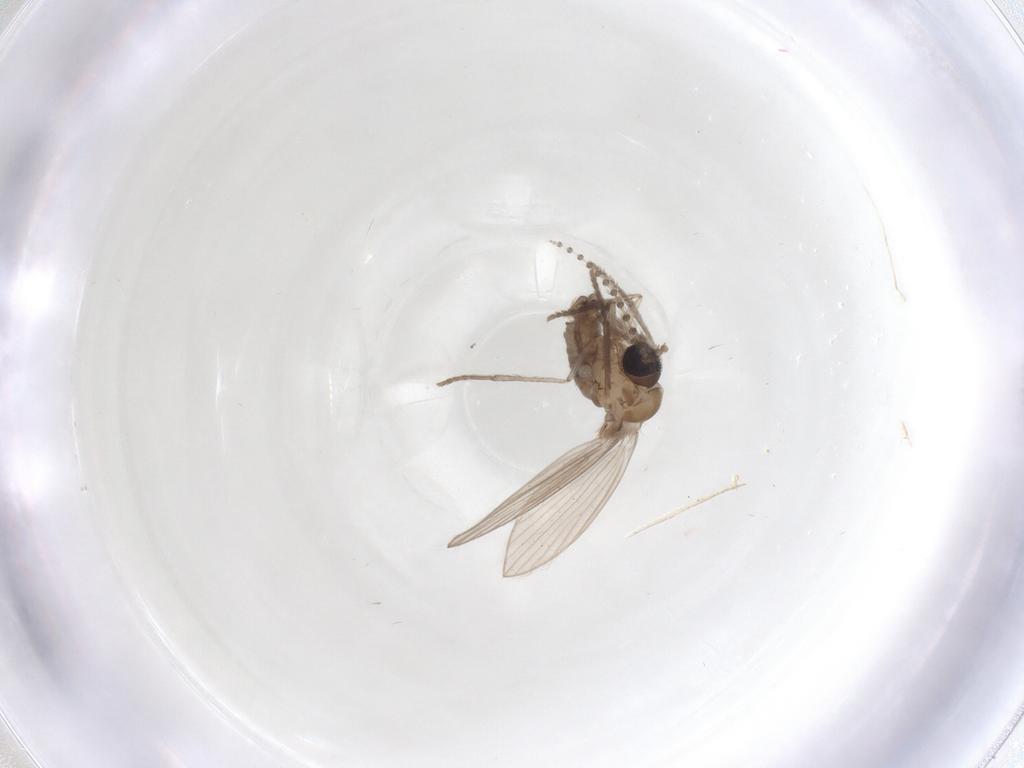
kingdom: Animalia
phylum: Arthropoda
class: Insecta
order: Diptera
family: Psychodidae
